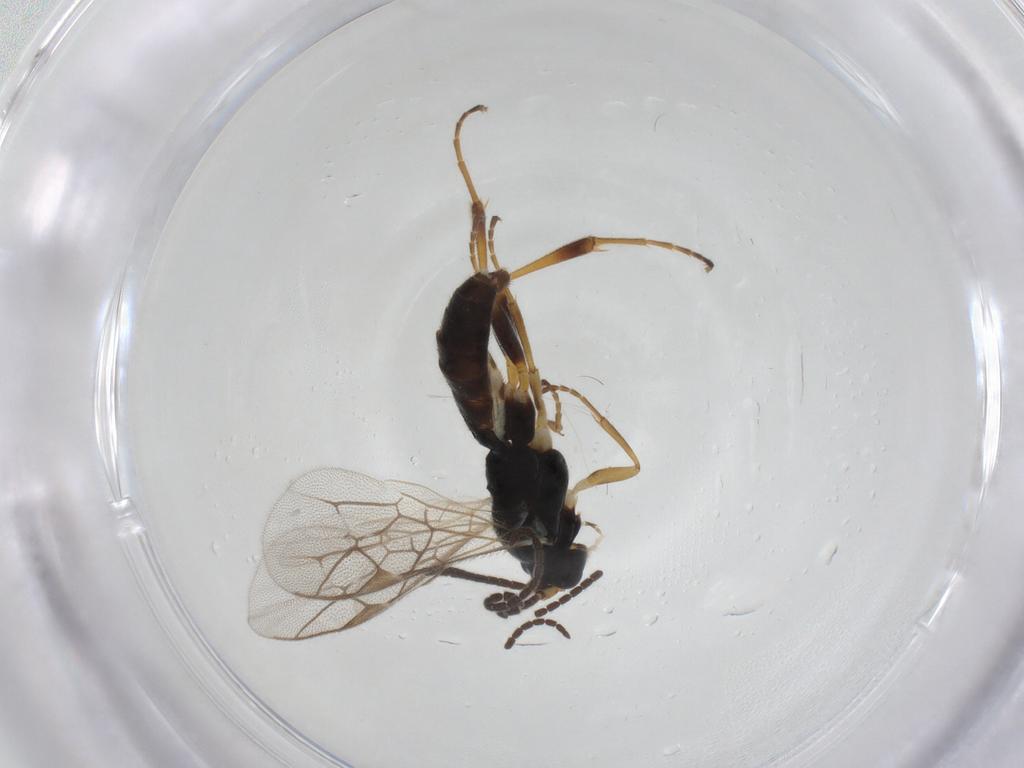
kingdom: Animalia
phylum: Arthropoda
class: Insecta
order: Hymenoptera
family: Ichneumonidae
